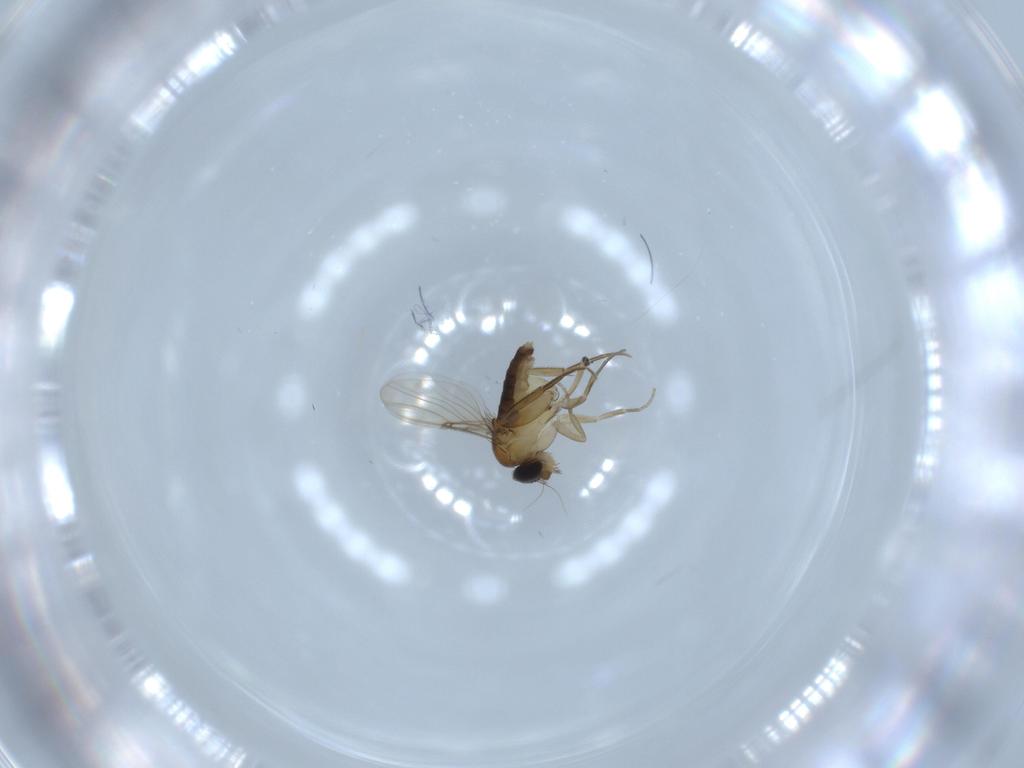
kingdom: Animalia
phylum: Arthropoda
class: Insecta
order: Diptera
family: Phoridae
